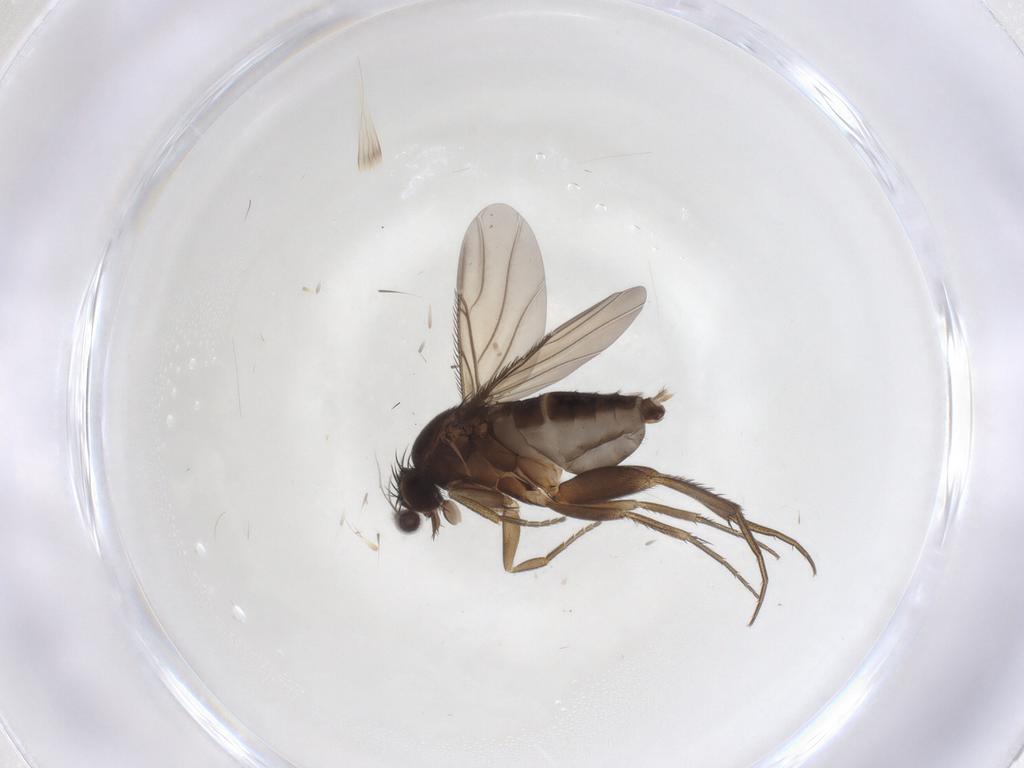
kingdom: Animalia
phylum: Arthropoda
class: Insecta
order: Diptera
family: Phoridae
